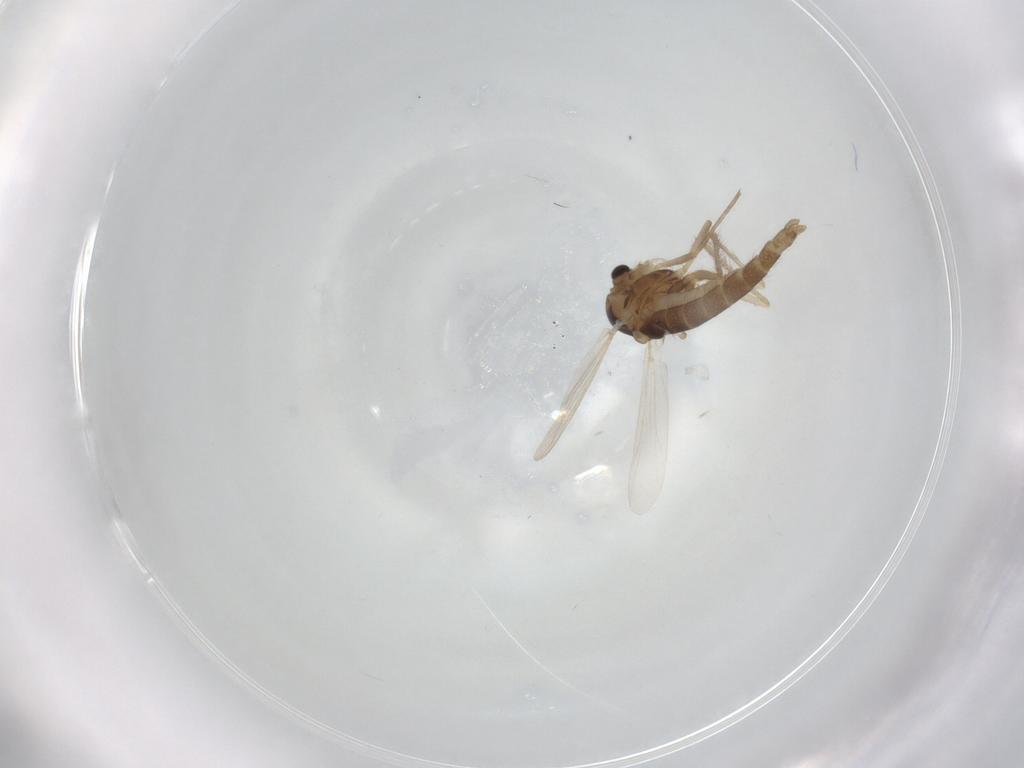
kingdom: Animalia
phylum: Arthropoda
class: Insecta
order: Diptera
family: Chironomidae
